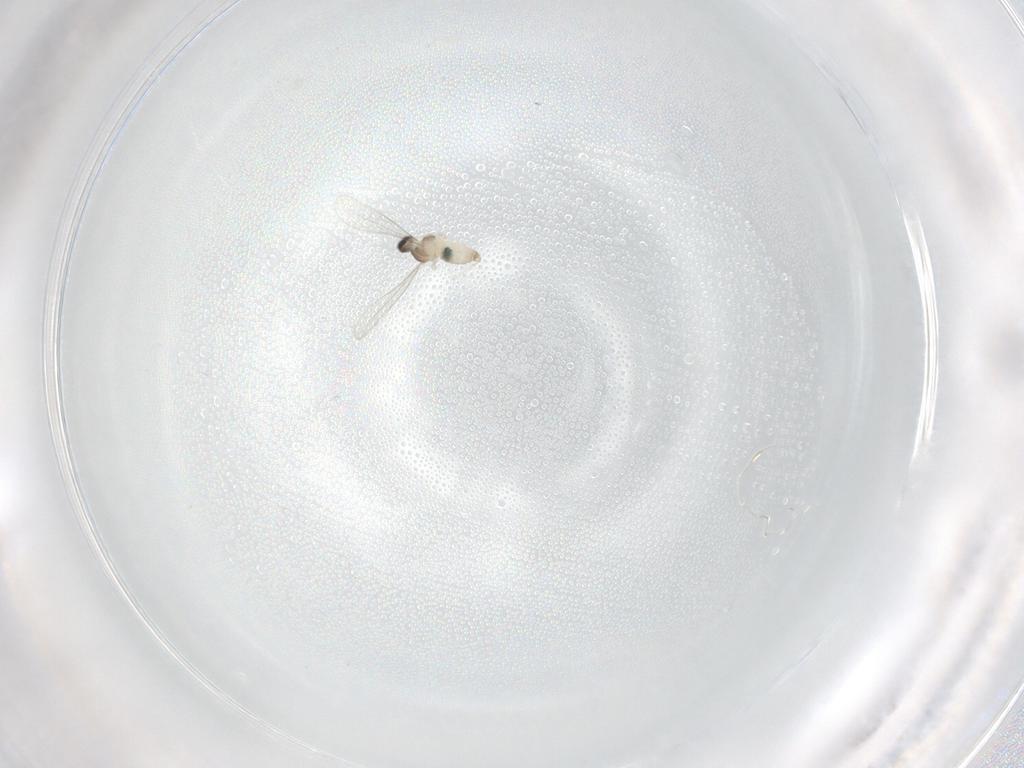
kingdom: Animalia
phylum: Arthropoda
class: Insecta
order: Diptera
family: Cecidomyiidae
